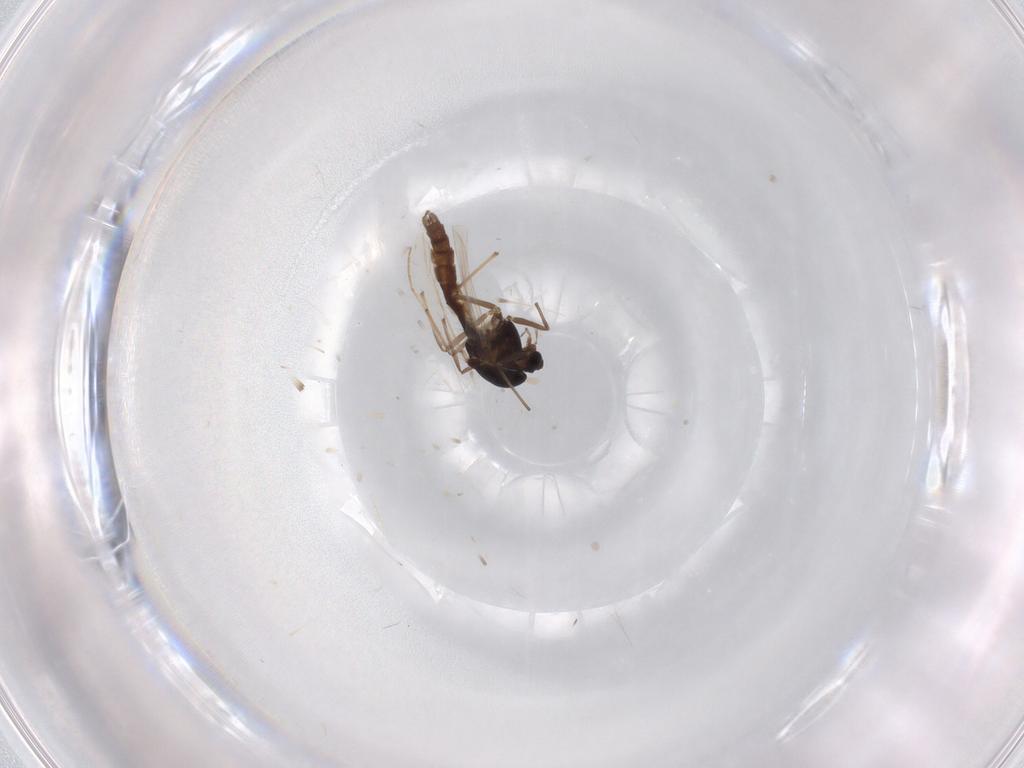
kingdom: Animalia
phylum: Arthropoda
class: Insecta
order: Diptera
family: Chironomidae
